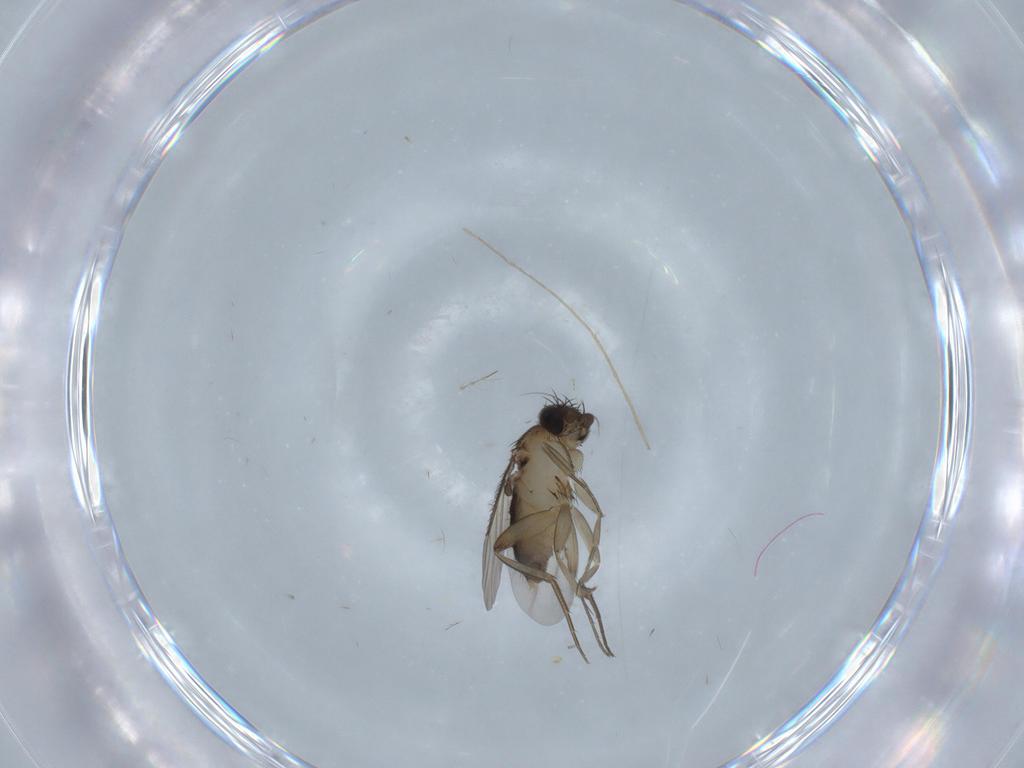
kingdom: Animalia
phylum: Arthropoda
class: Insecta
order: Diptera
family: Phoridae
